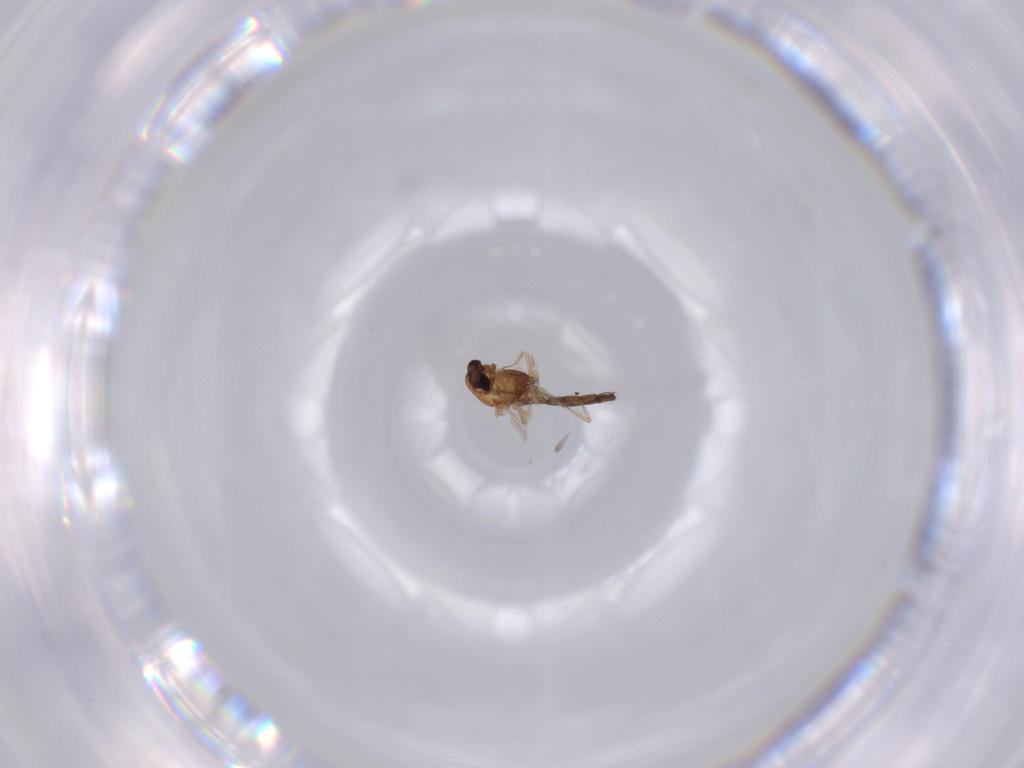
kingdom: Animalia
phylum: Arthropoda
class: Insecta
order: Diptera
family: Chironomidae
